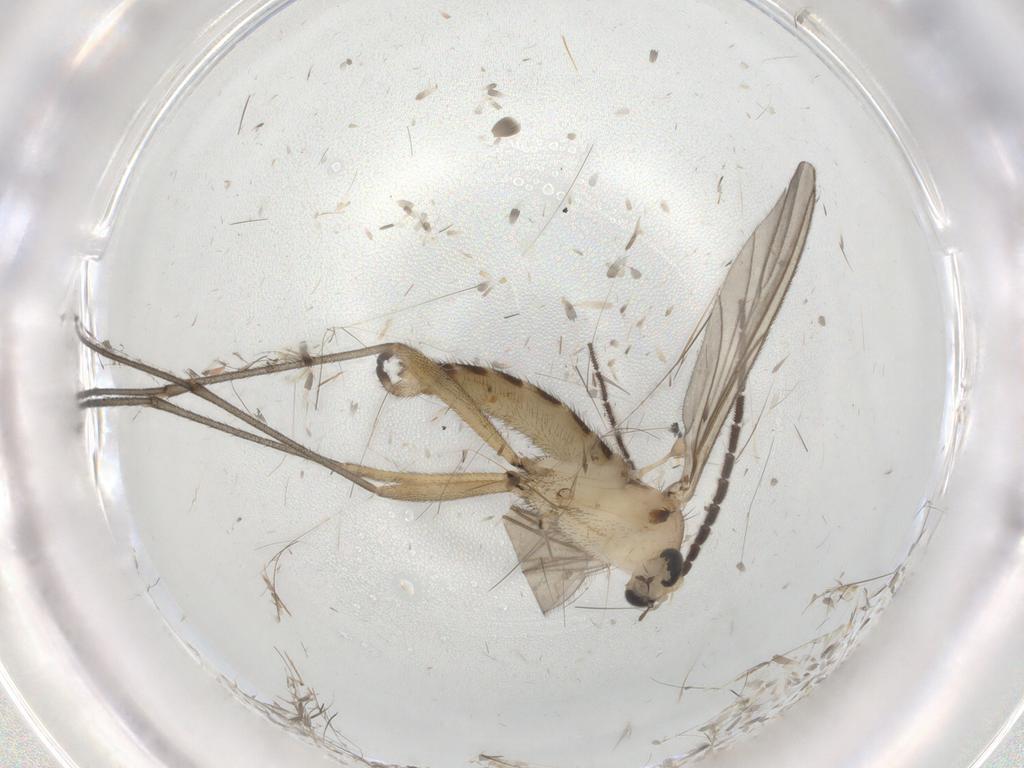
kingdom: Animalia
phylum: Arthropoda
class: Insecta
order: Diptera
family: Sciaridae
